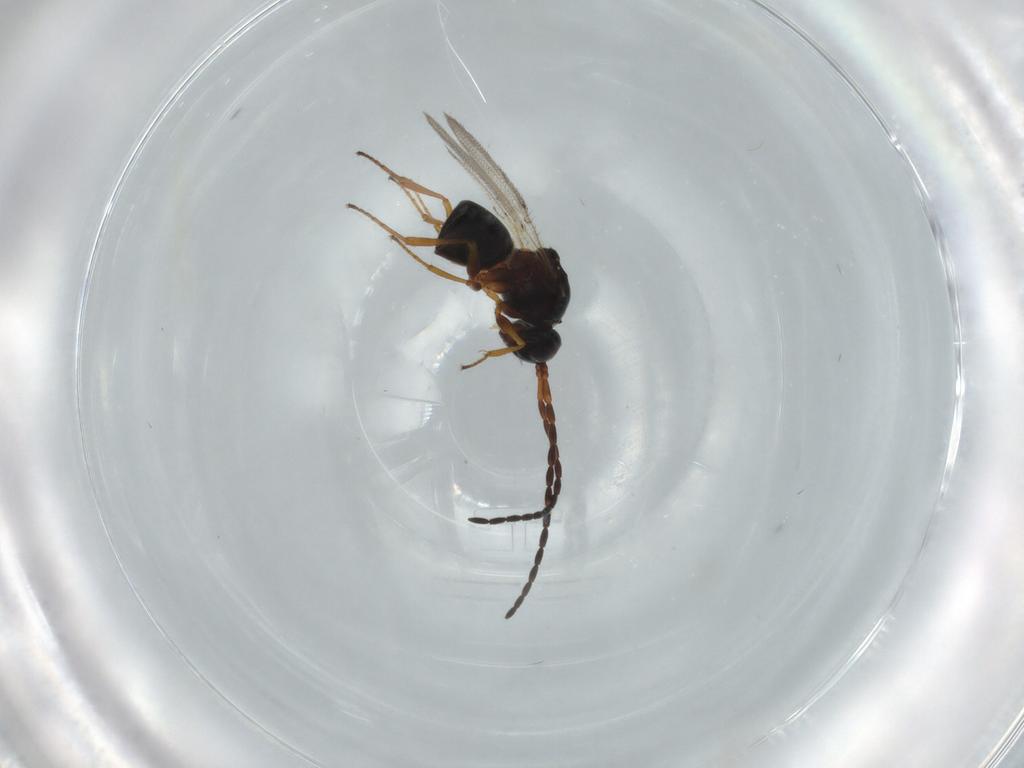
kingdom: Animalia
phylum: Arthropoda
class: Insecta
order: Hymenoptera
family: Figitidae
